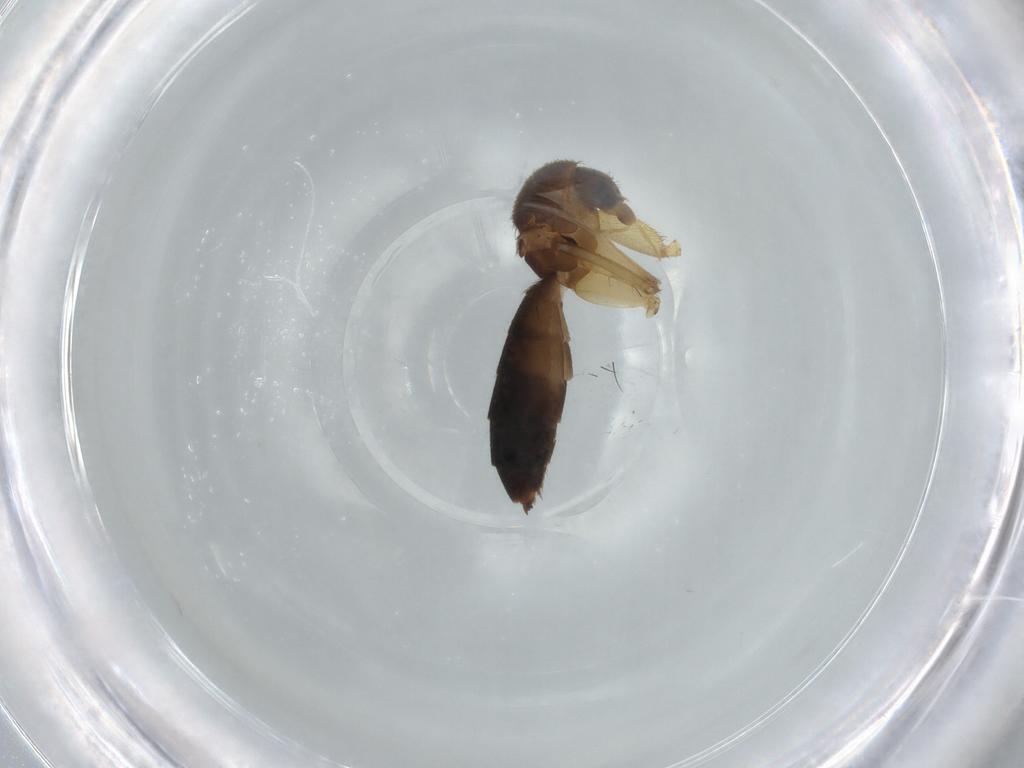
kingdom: Animalia
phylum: Arthropoda
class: Insecta
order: Diptera
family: Mycetophilidae
